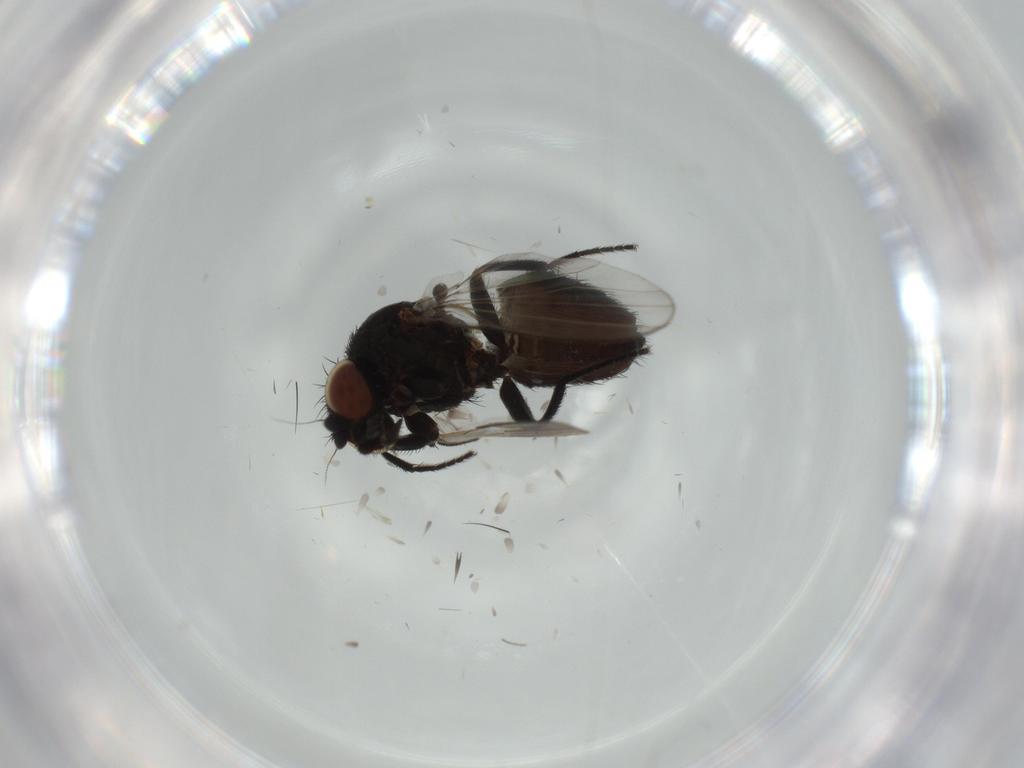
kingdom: Animalia
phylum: Arthropoda
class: Insecta
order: Diptera
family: Milichiidae
